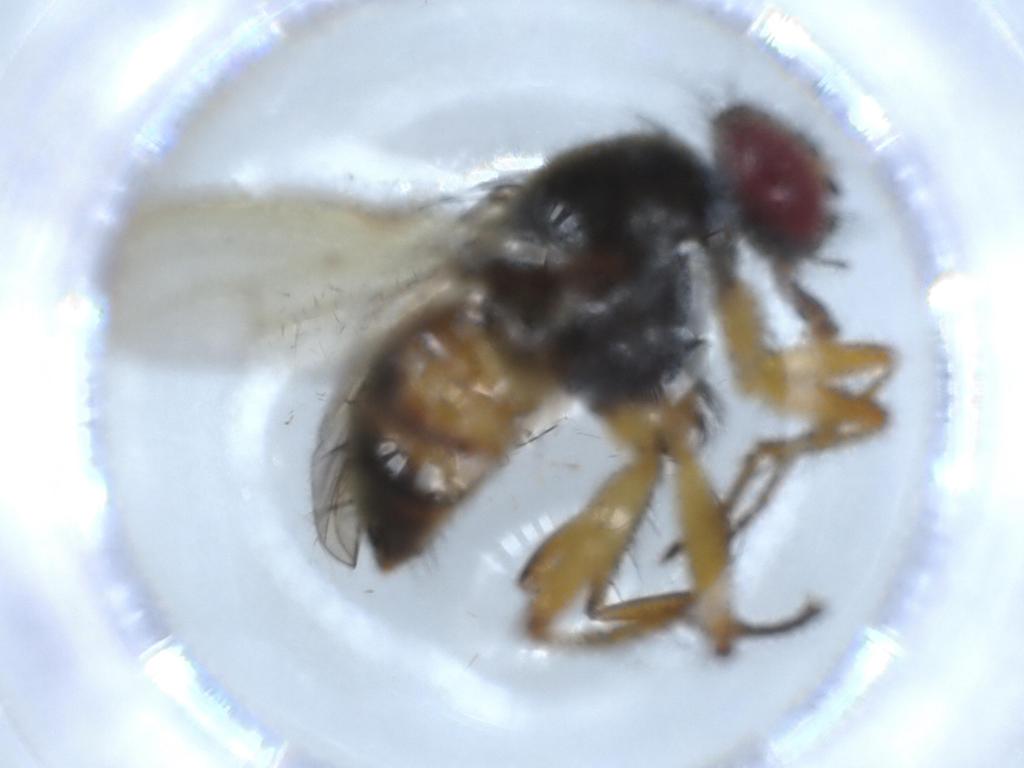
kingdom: Animalia
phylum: Arthropoda
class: Insecta
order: Diptera
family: Muscidae
